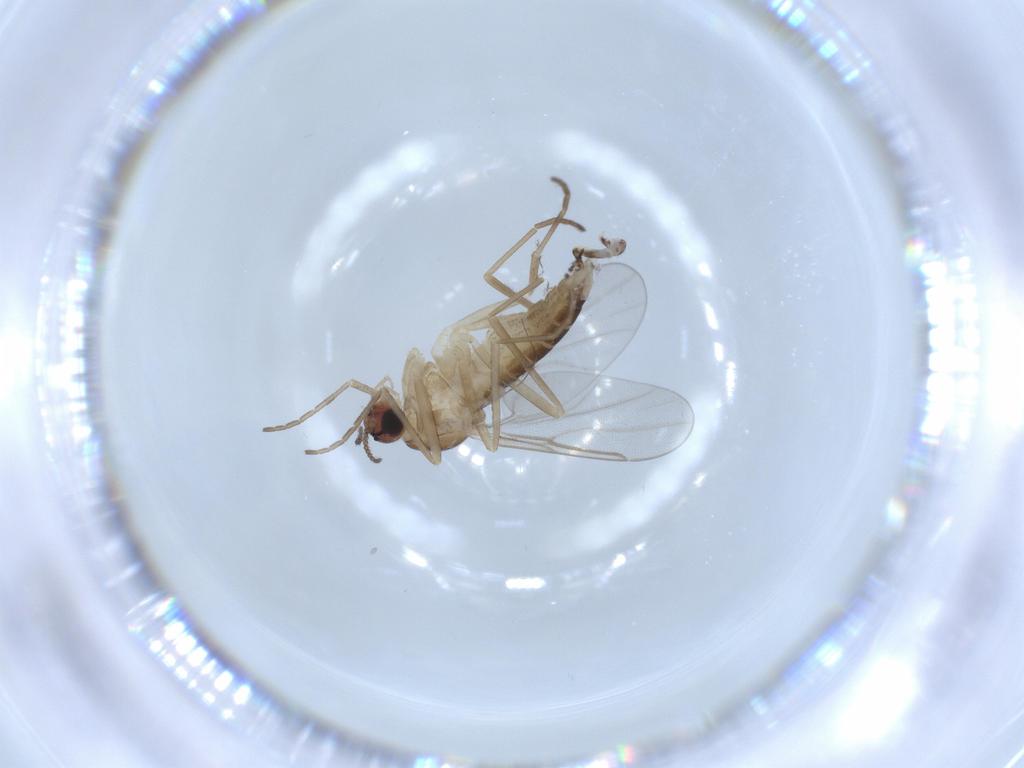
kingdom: Animalia
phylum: Arthropoda
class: Insecta
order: Diptera
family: Cecidomyiidae
